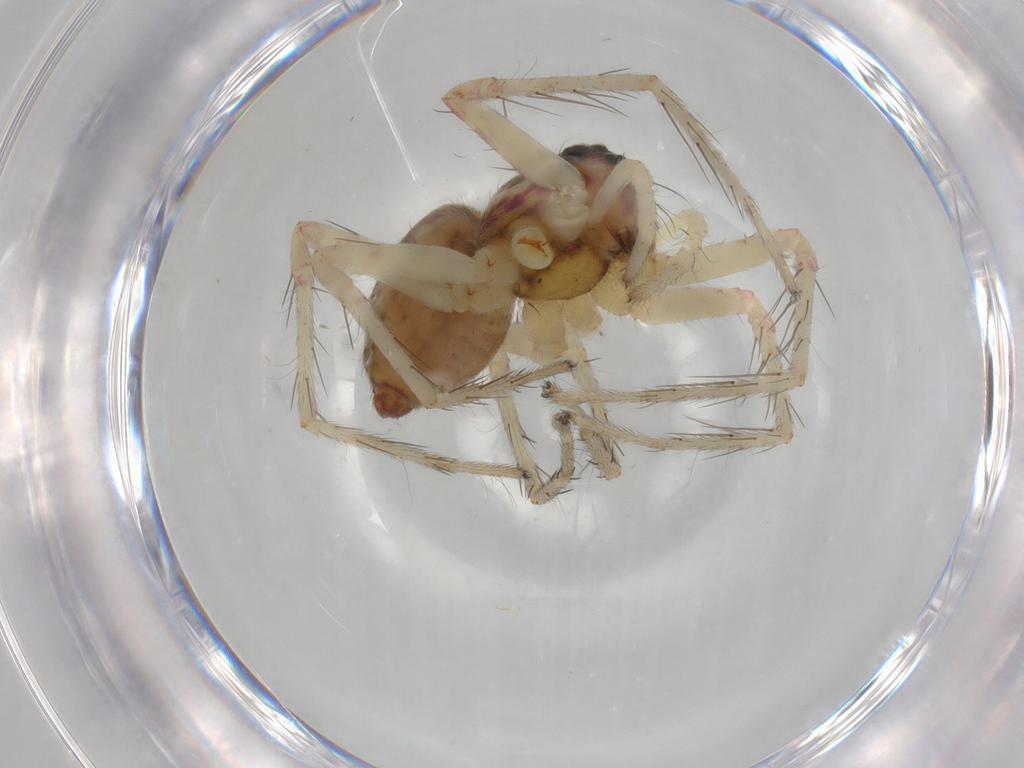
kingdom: Animalia
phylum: Arthropoda
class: Arachnida
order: Araneae
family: Ctenidae
